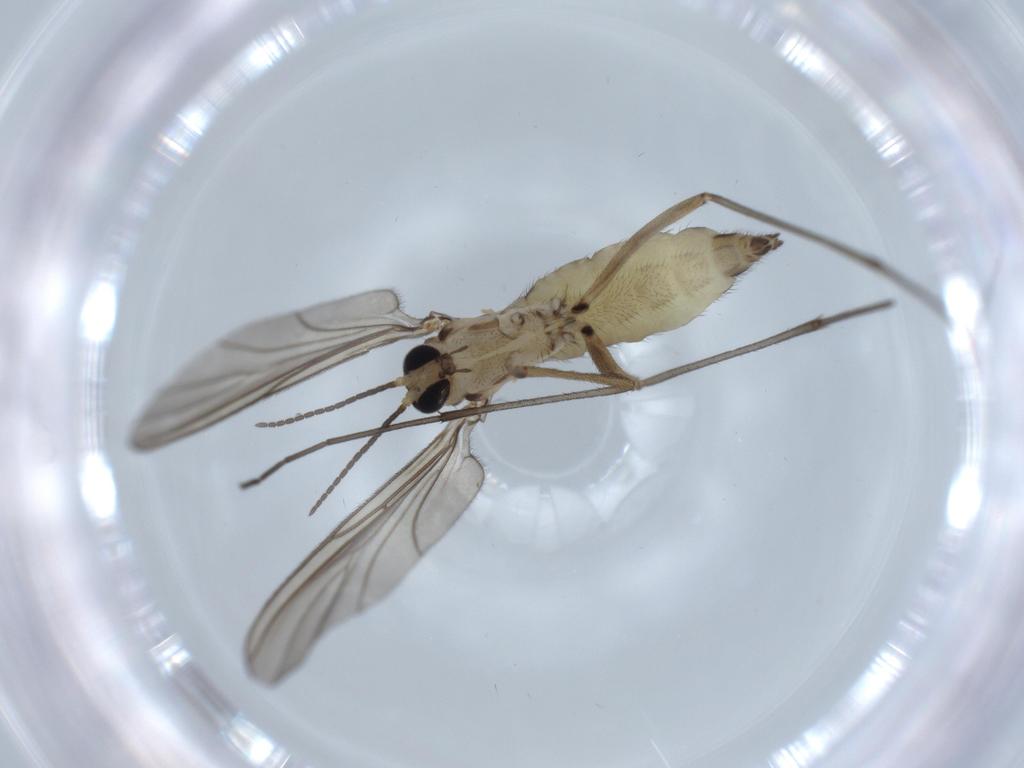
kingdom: Animalia
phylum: Arthropoda
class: Insecta
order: Diptera
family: Sciaridae
